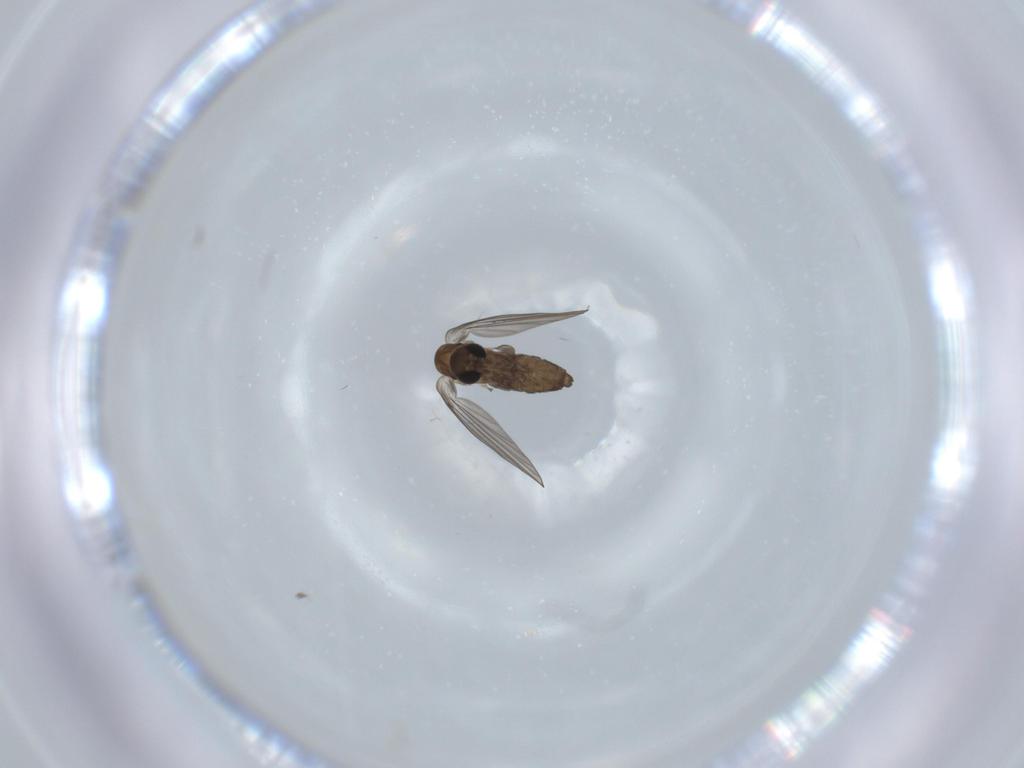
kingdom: Animalia
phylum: Arthropoda
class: Insecta
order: Diptera
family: Psychodidae
